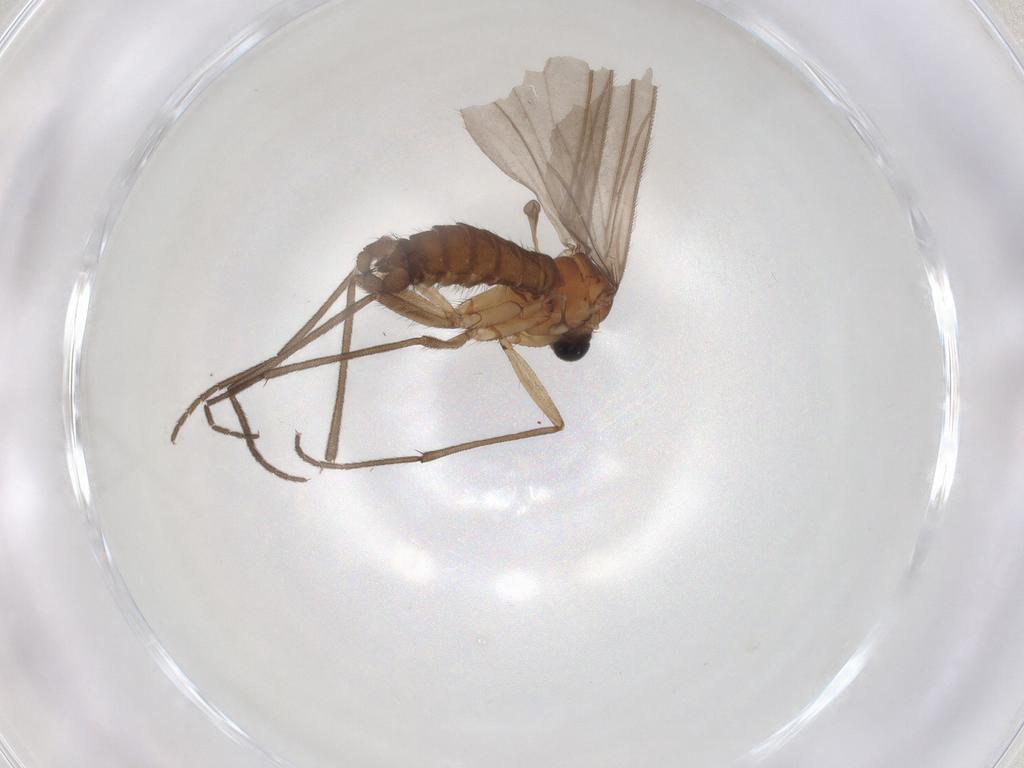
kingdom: Animalia
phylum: Arthropoda
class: Insecta
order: Diptera
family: Sciaridae
